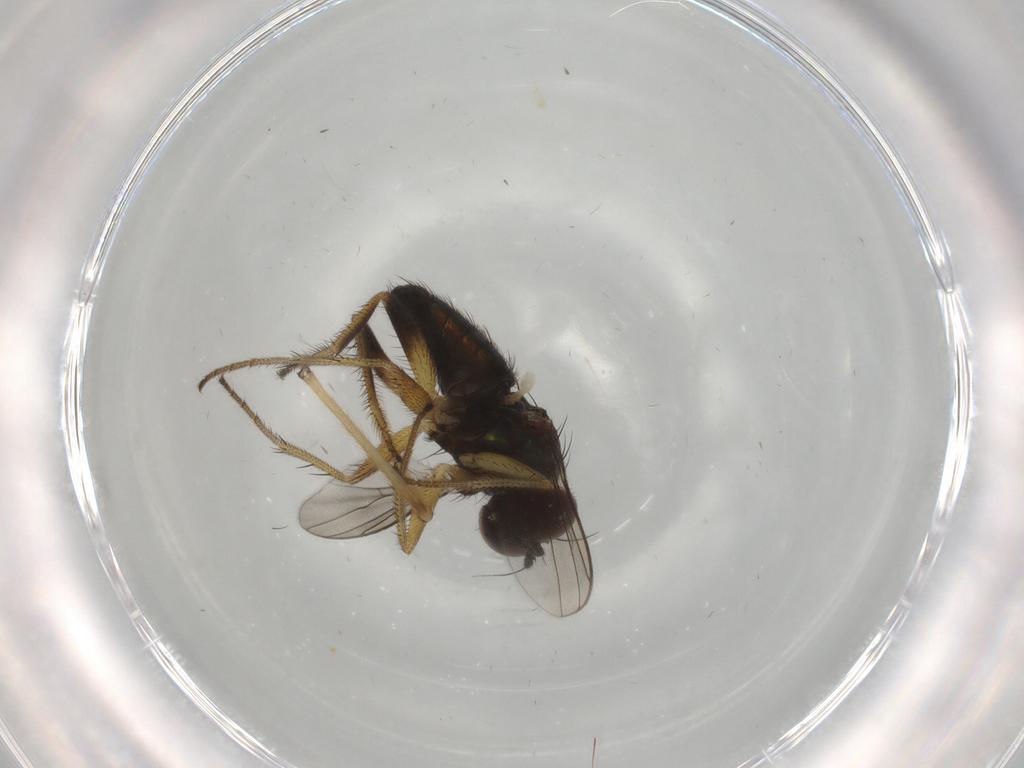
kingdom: Animalia
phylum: Arthropoda
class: Insecta
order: Diptera
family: Dolichopodidae
